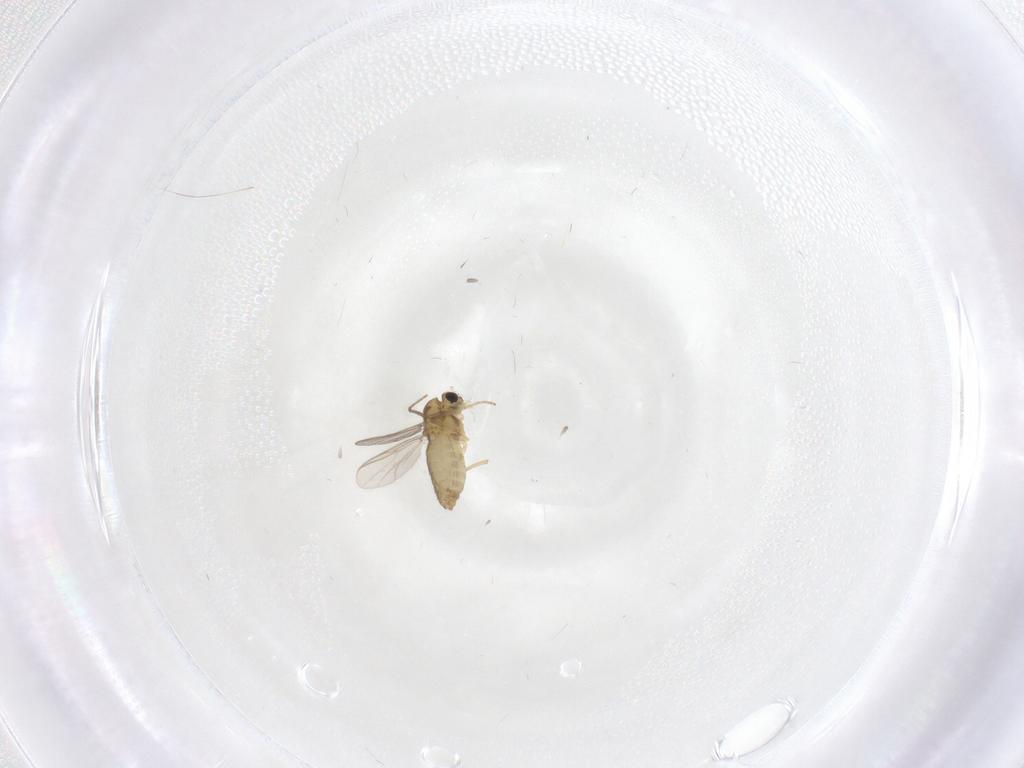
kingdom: Animalia
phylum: Arthropoda
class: Insecta
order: Diptera
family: Chironomidae
